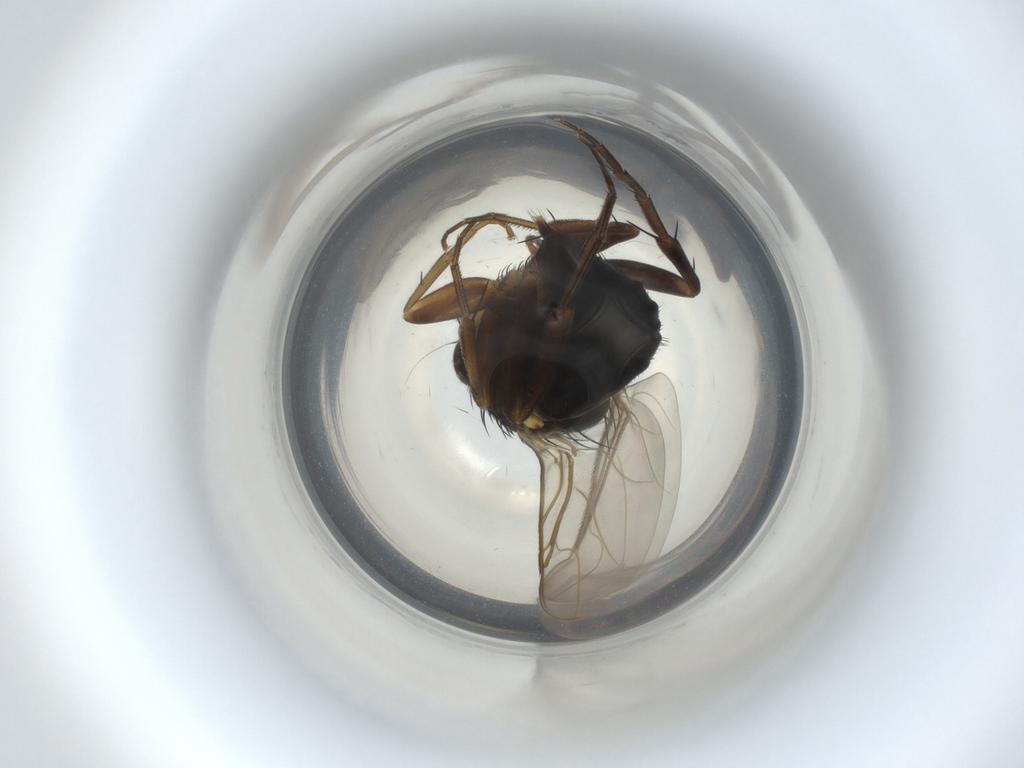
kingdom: Animalia
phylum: Arthropoda
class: Insecta
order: Diptera
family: Phoridae
